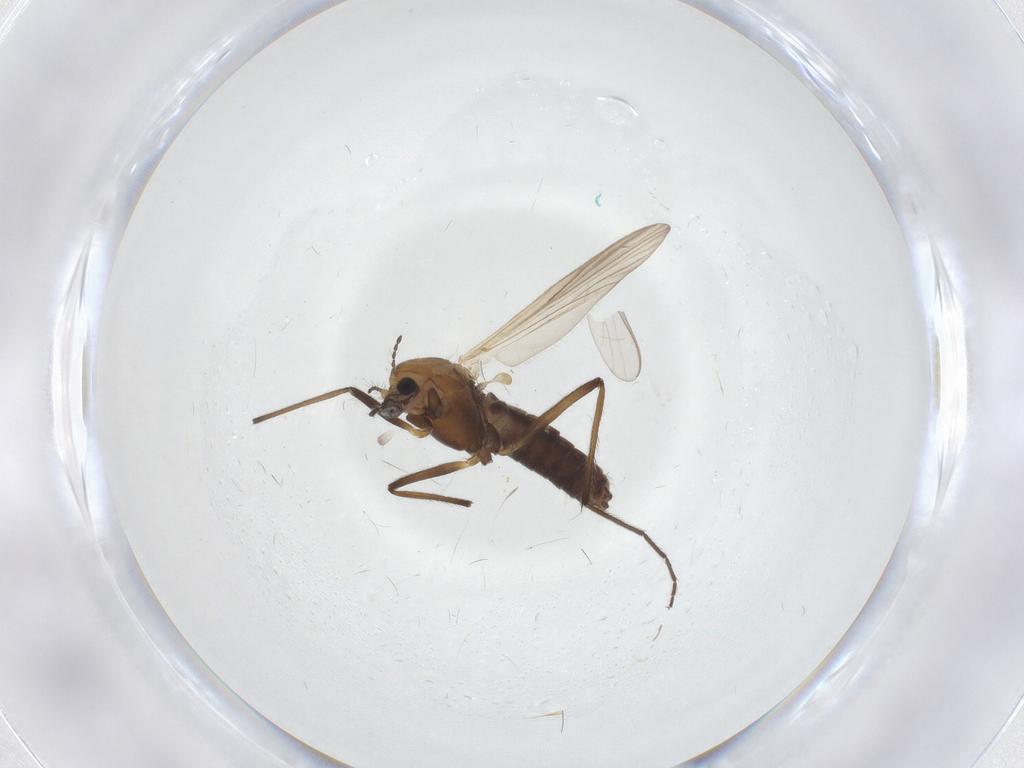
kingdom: Animalia
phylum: Arthropoda
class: Insecta
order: Diptera
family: Chironomidae
